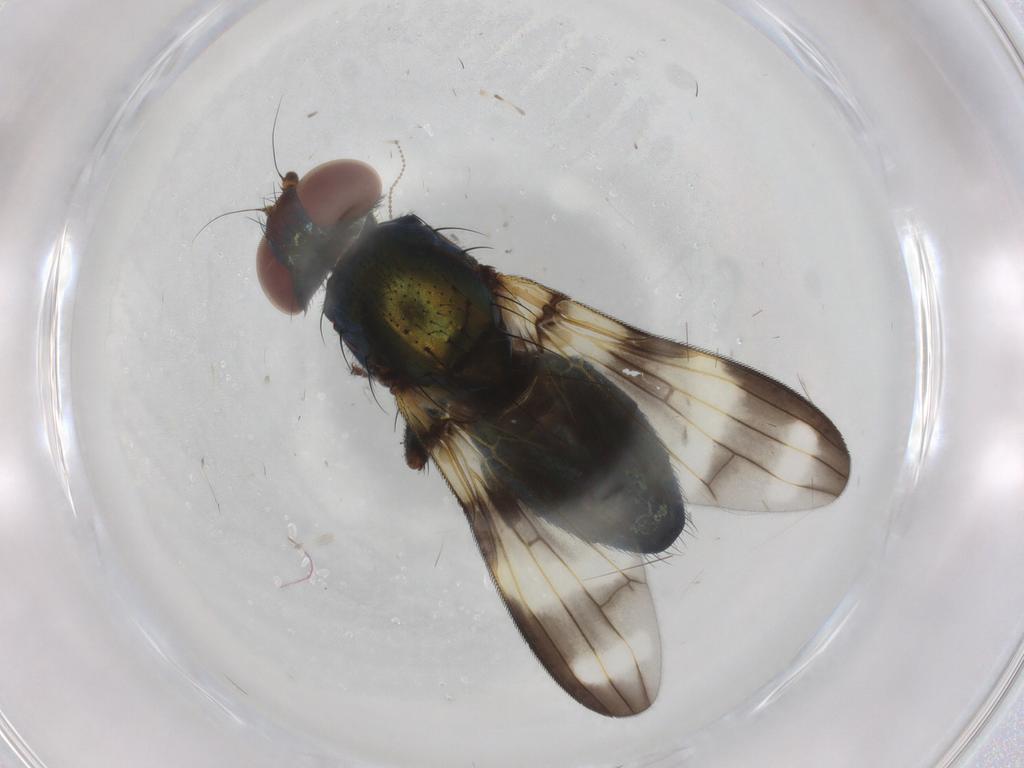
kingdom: Animalia
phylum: Arthropoda
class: Insecta
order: Diptera
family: Ulidiidae
